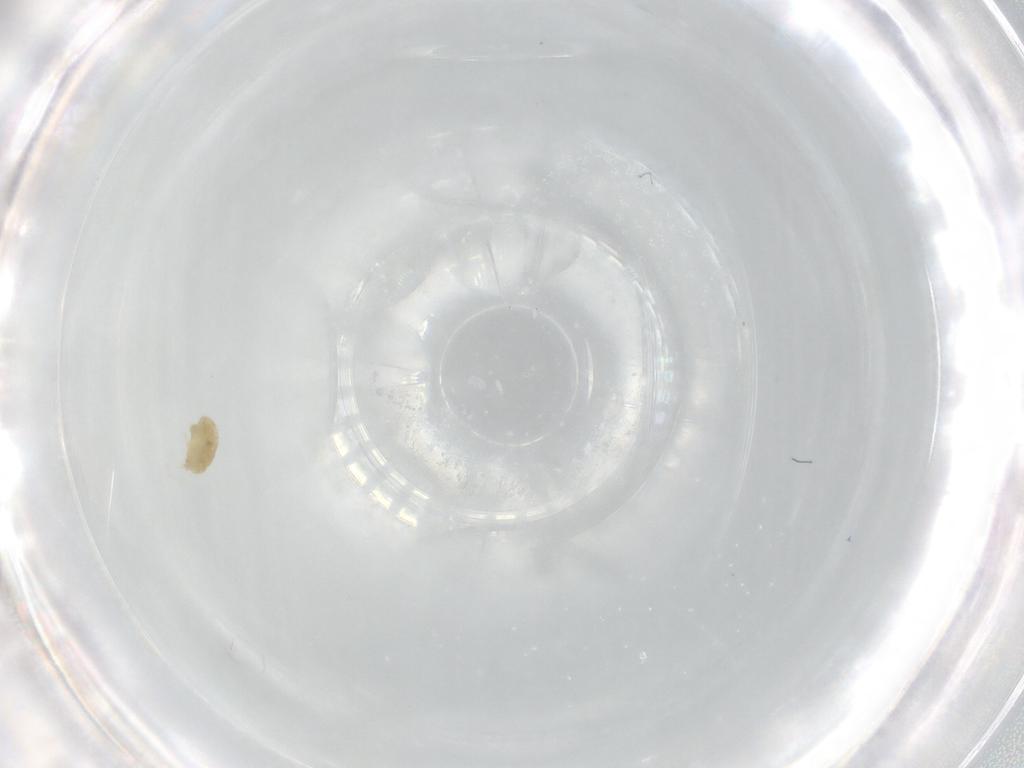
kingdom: Animalia
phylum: Arthropoda
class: Arachnida
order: Trombidiformes
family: Eupodidae
